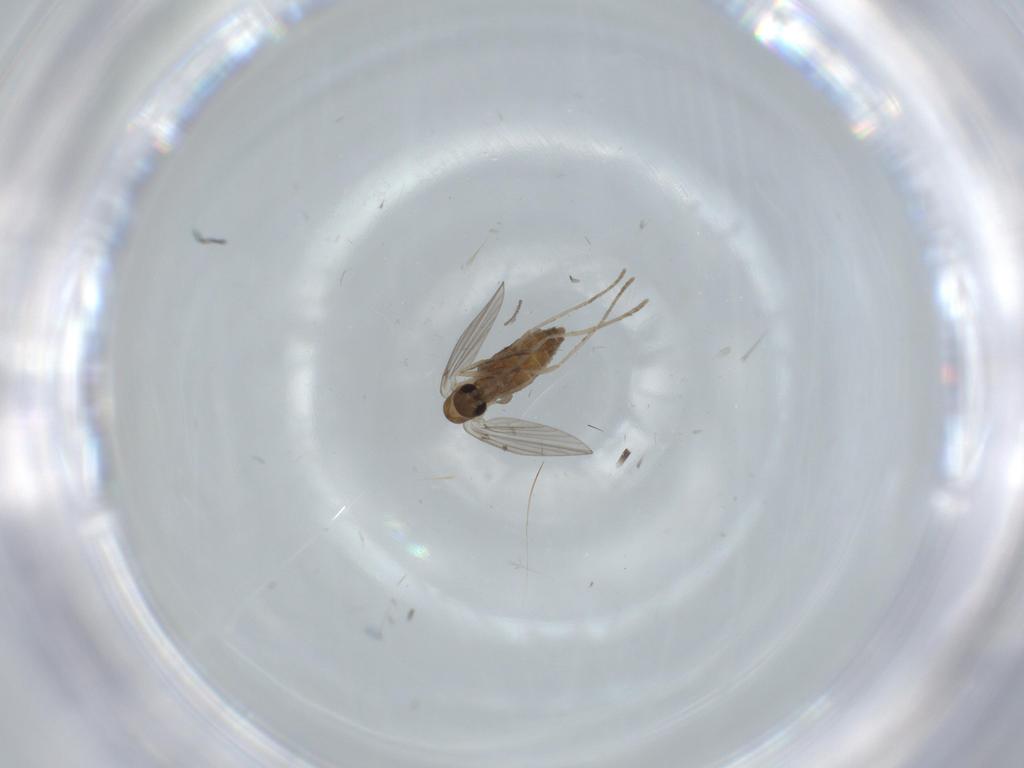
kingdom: Animalia
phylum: Arthropoda
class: Insecta
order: Diptera
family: Cecidomyiidae
